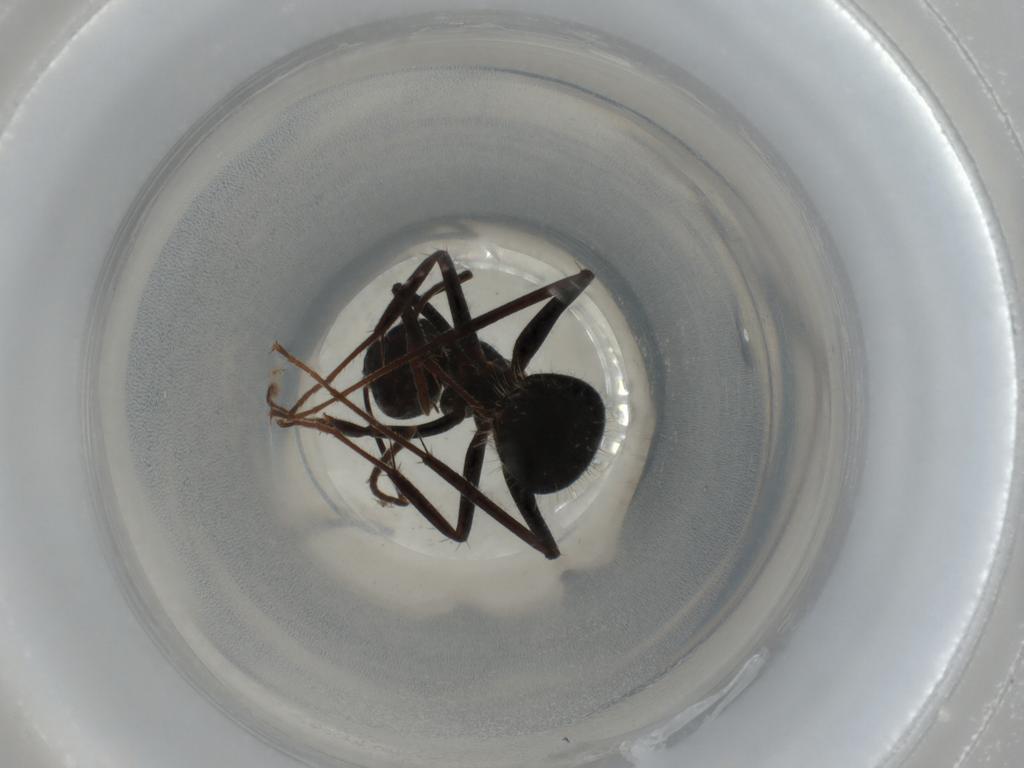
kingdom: Animalia
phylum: Arthropoda
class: Insecta
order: Hymenoptera
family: Formicidae
